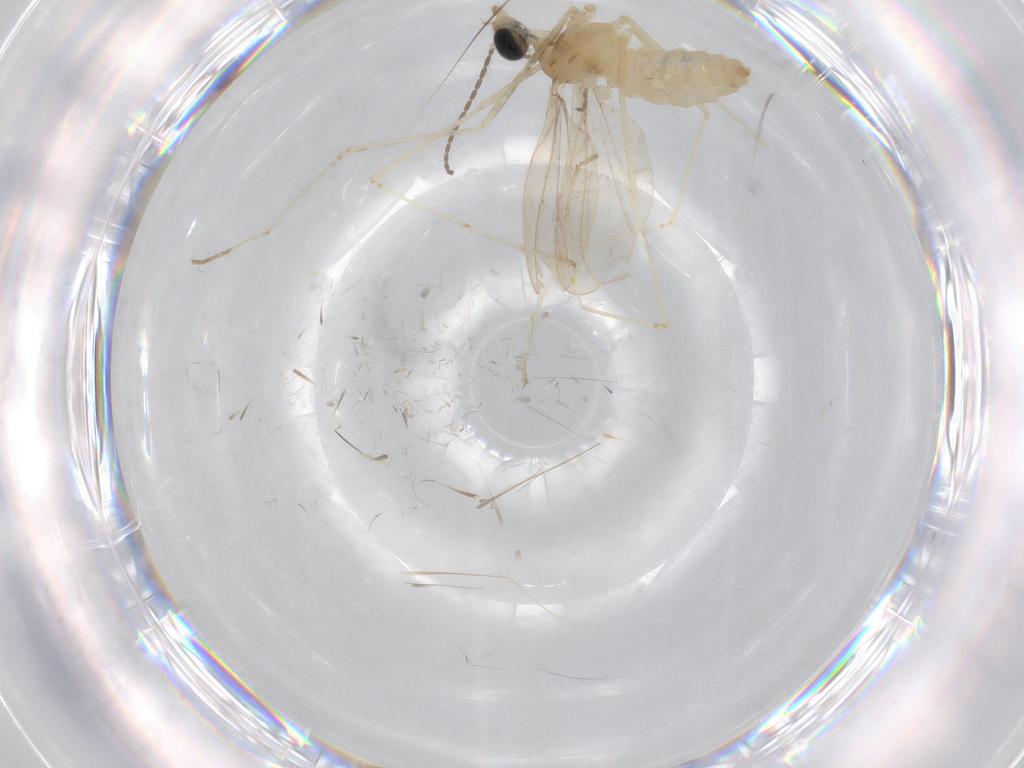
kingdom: Animalia
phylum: Arthropoda
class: Insecta
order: Diptera
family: Cecidomyiidae
